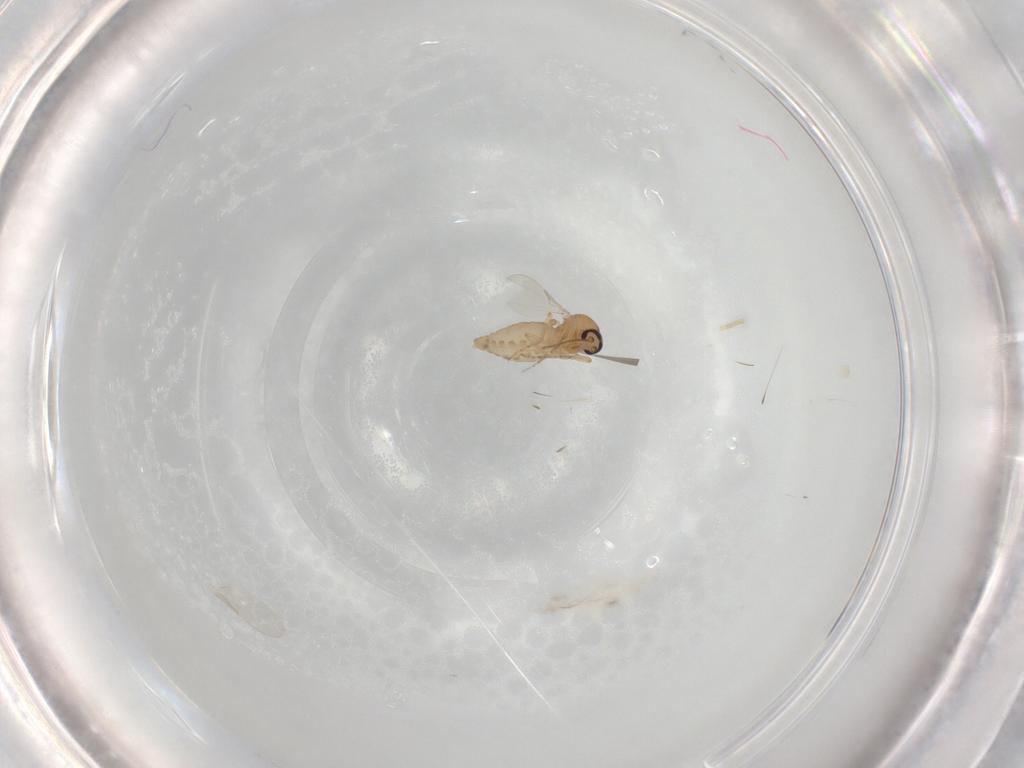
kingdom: Animalia
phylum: Arthropoda
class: Insecta
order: Diptera
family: Ceratopogonidae
